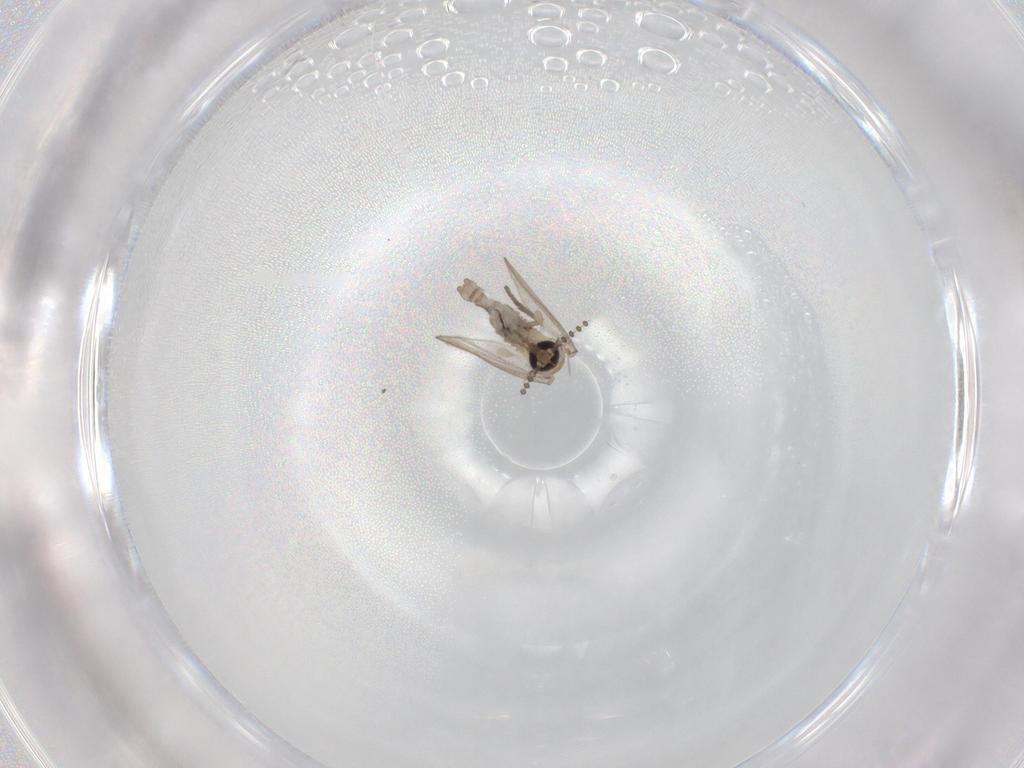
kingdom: Animalia
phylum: Arthropoda
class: Insecta
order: Diptera
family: Psychodidae
